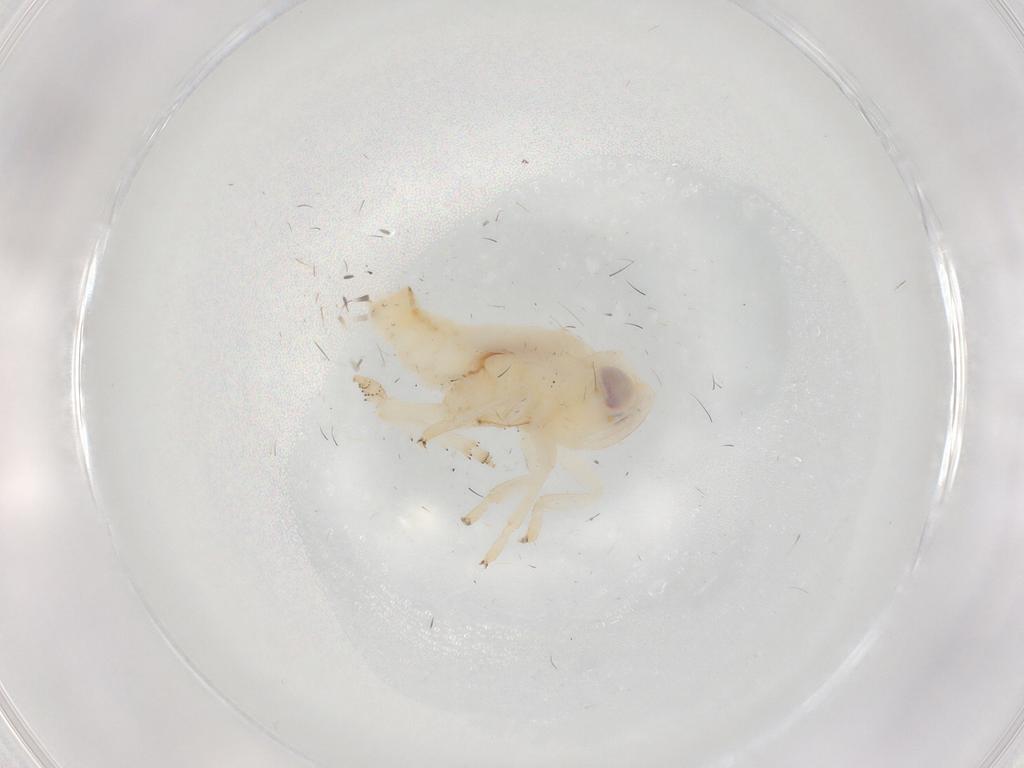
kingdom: Animalia
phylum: Arthropoda
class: Insecta
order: Hemiptera
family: Nogodinidae
